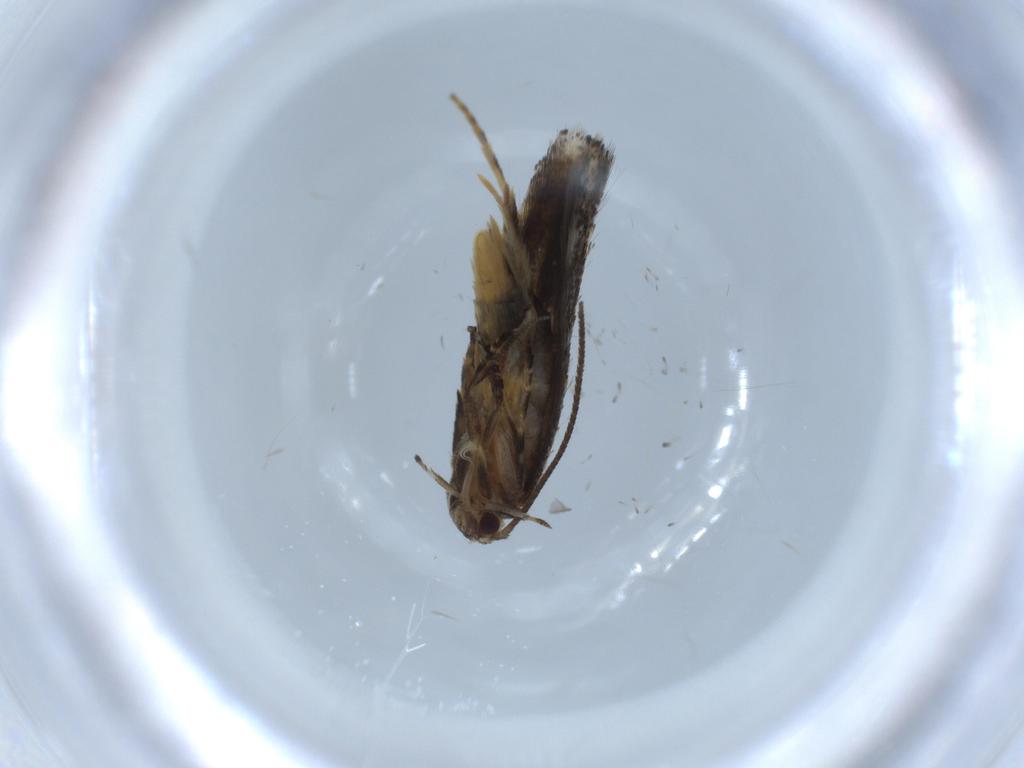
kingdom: Animalia
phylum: Arthropoda
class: Insecta
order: Lepidoptera
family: Elachistidae
